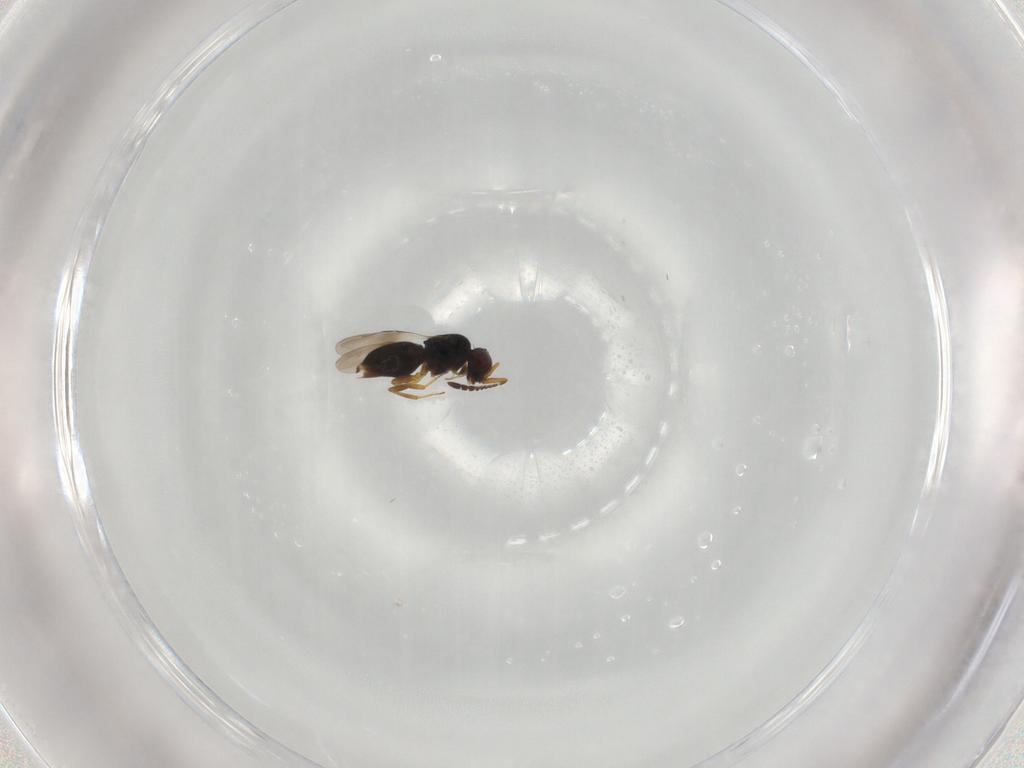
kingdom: Animalia
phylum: Arthropoda
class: Insecta
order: Hymenoptera
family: Ceraphronidae
